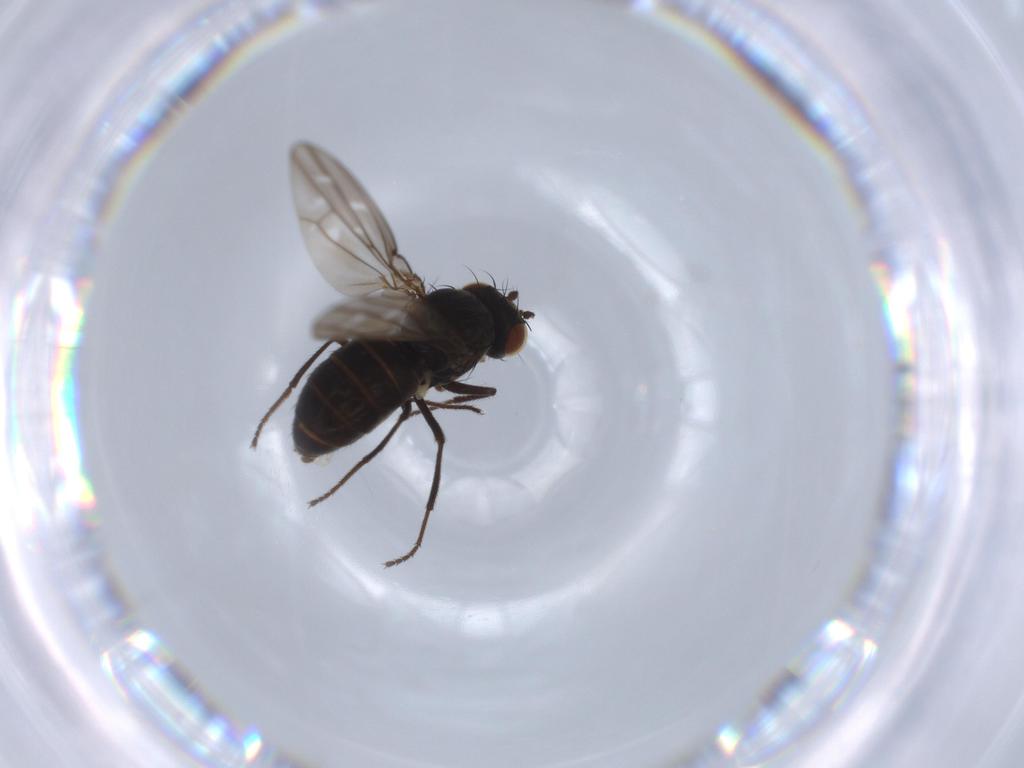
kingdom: Animalia
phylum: Arthropoda
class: Insecta
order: Diptera
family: Ephydridae
